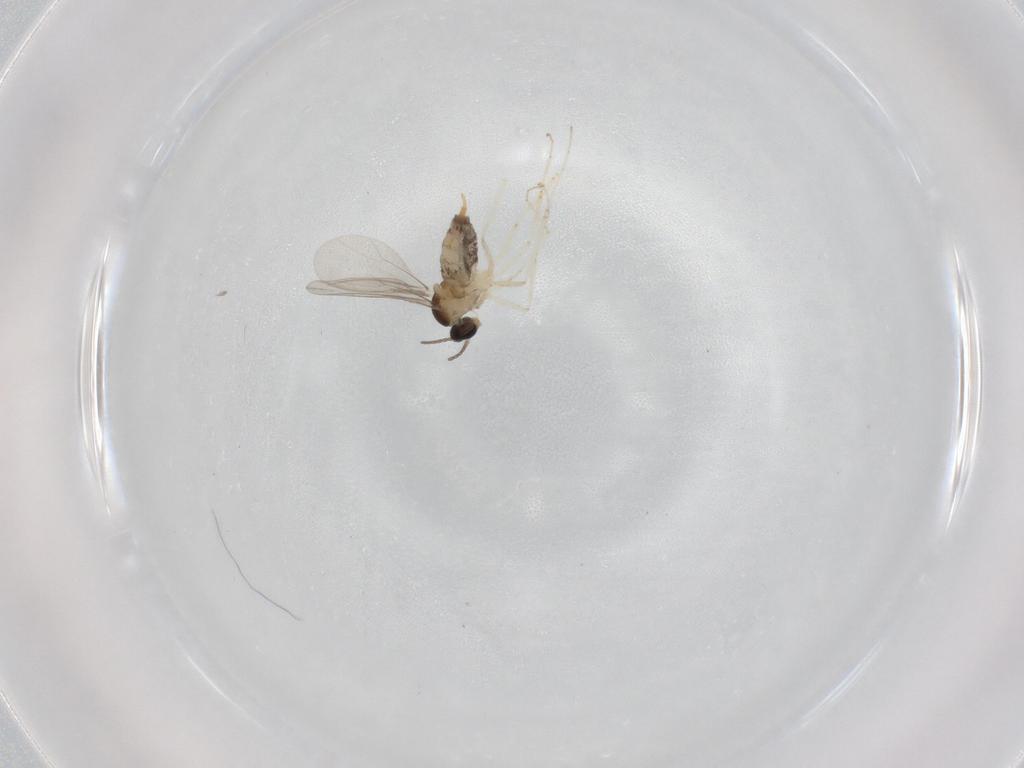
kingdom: Animalia
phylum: Arthropoda
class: Insecta
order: Diptera
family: Cecidomyiidae
